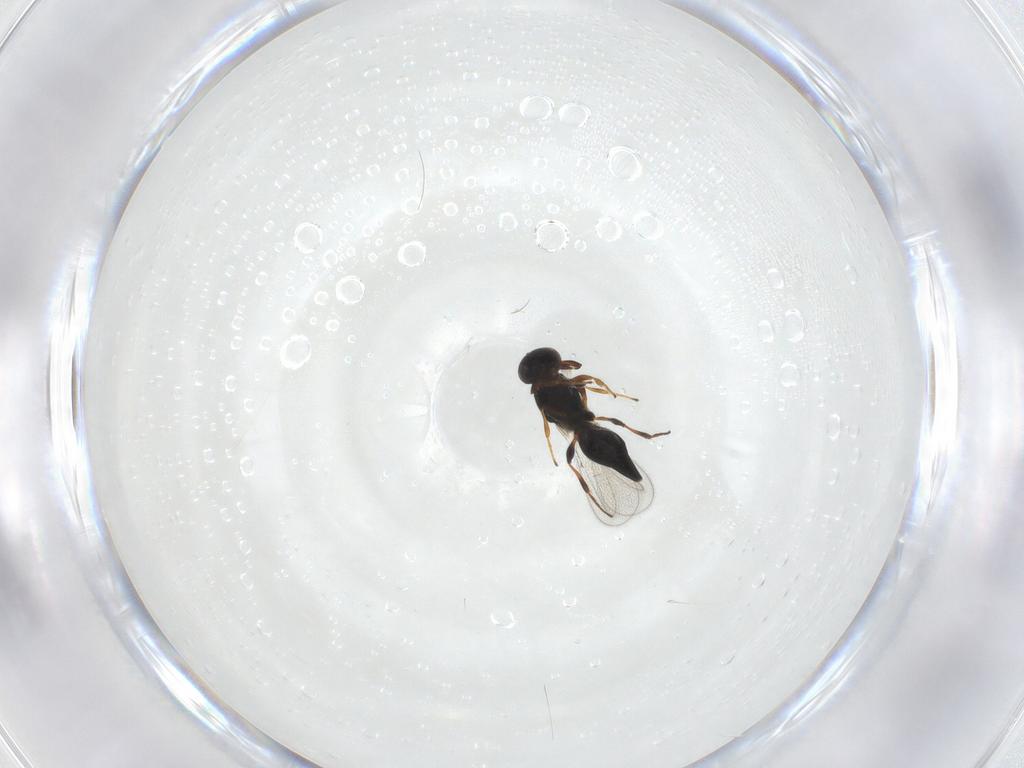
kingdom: Animalia
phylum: Arthropoda
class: Insecta
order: Hymenoptera
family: Platygastridae
